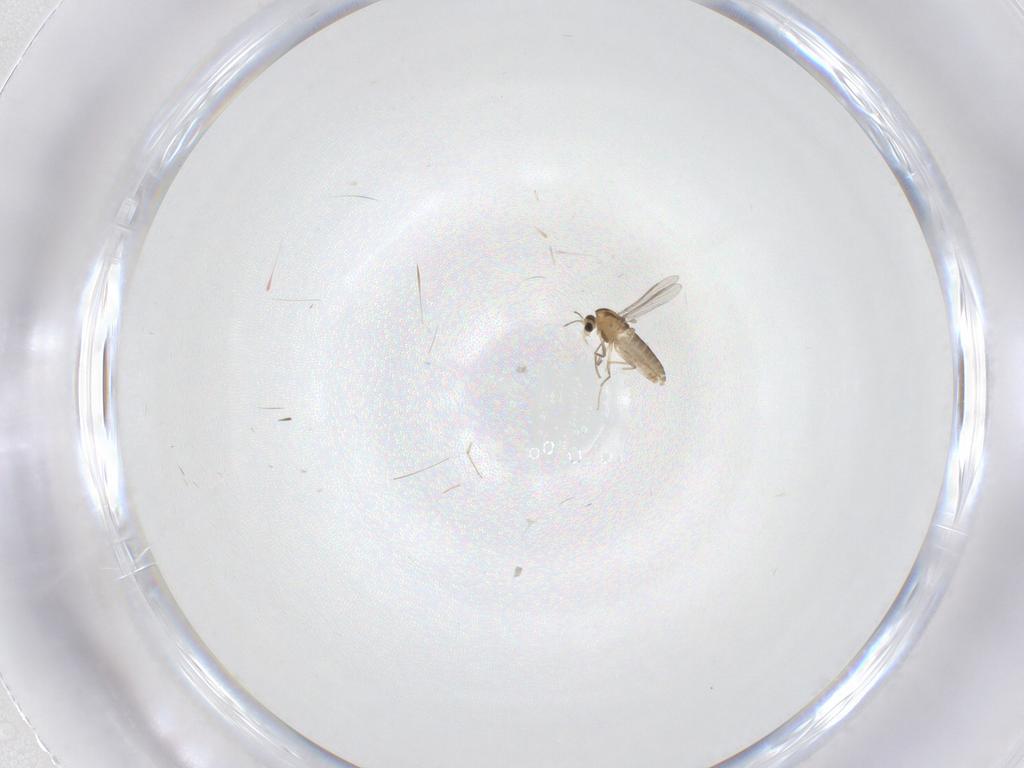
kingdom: Animalia
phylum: Arthropoda
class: Insecta
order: Diptera
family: Chironomidae
